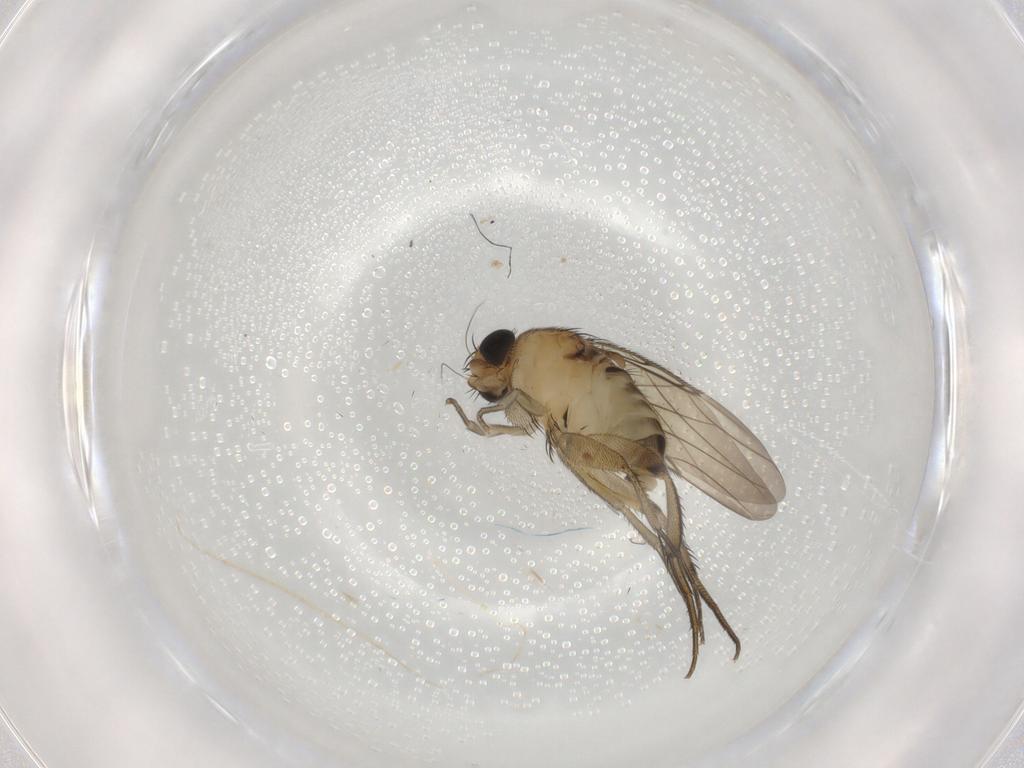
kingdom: Animalia
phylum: Arthropoda
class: Insecta
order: Diptera
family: Phoridae
